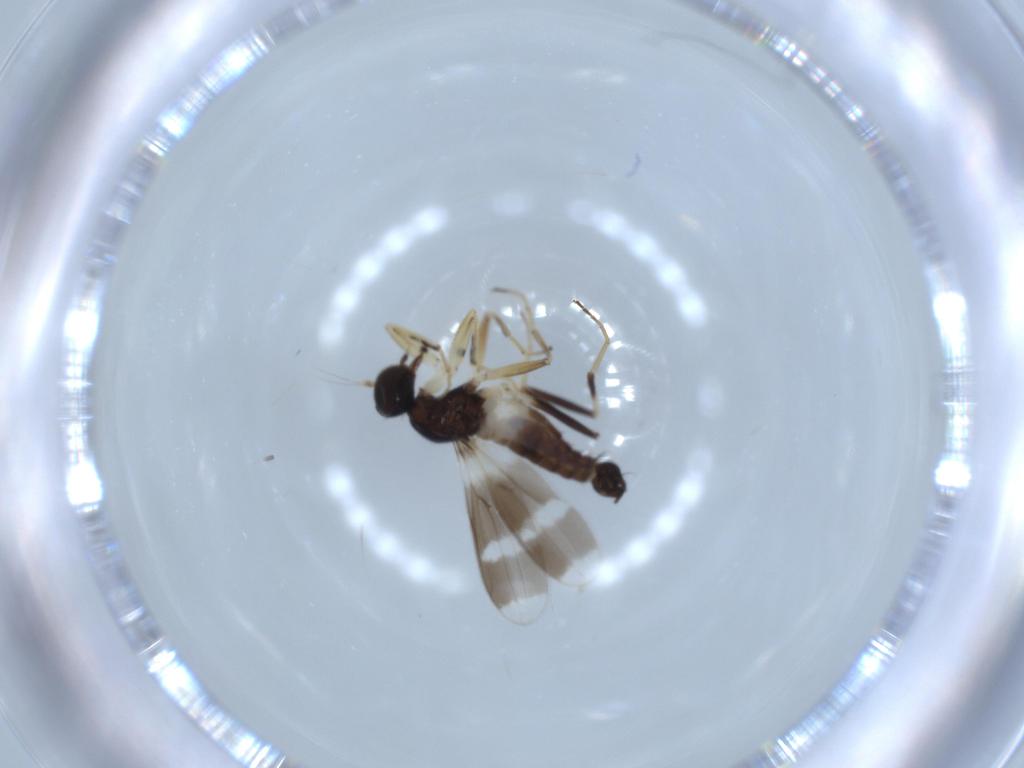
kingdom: Animalia
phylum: Arthropoda
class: Insecta
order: Diptera
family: Hybotidae
